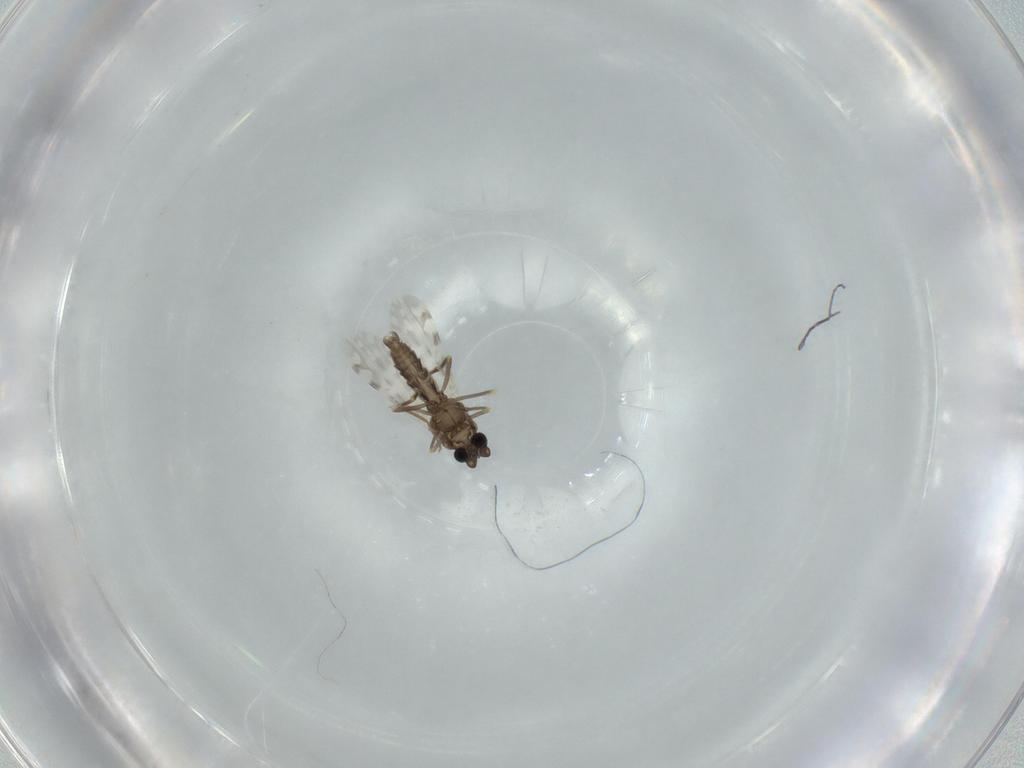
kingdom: Animalia
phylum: Arthropoda
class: Insecta
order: Diptera
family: Cecidomyiidae
